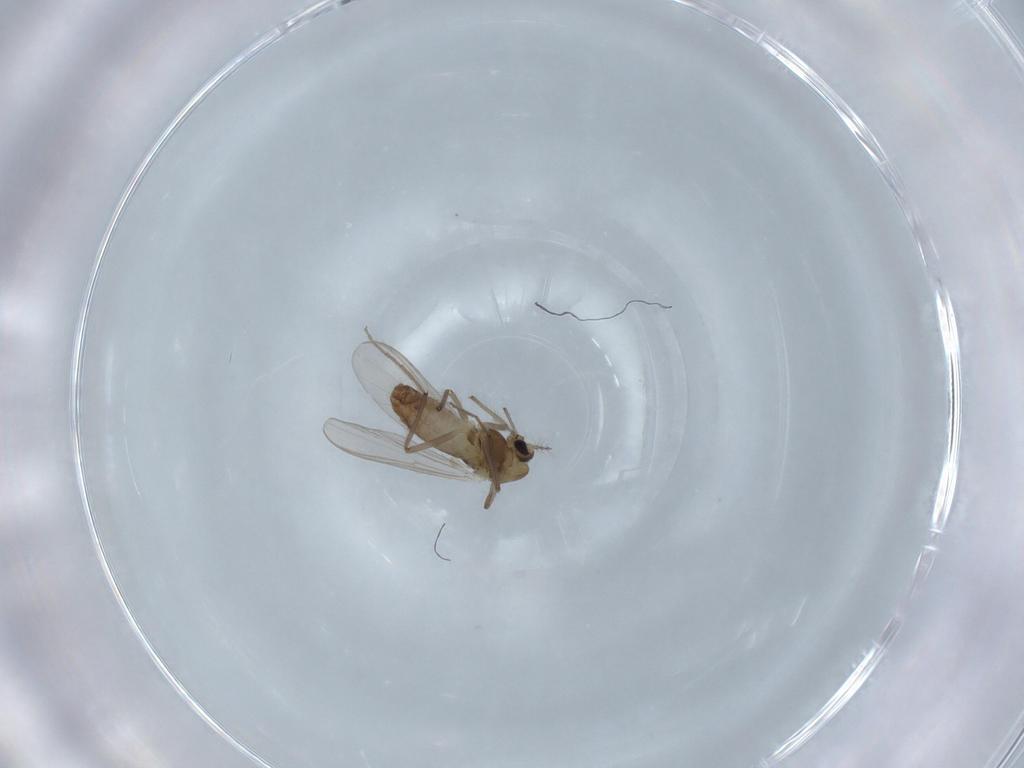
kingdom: Animalia
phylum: Arthropoda
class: Insecta
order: Diptera
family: Chironomidae
